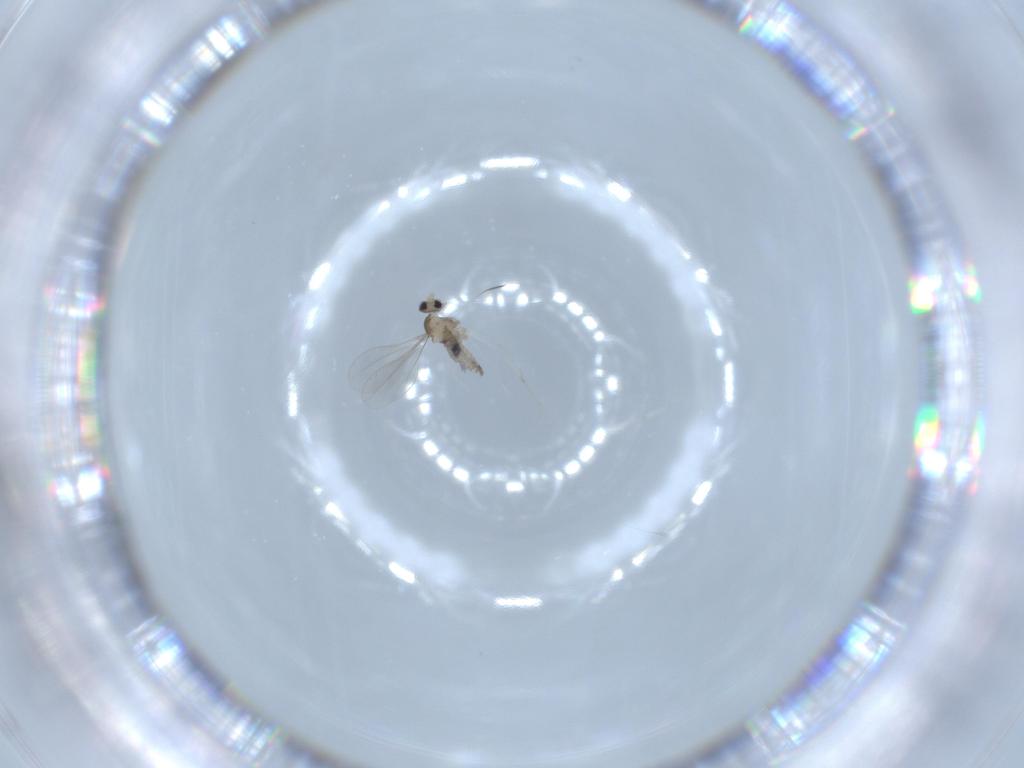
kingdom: Animalia
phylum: Arthropoda
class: Insecta
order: Diptera
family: Cecidomyiidae
